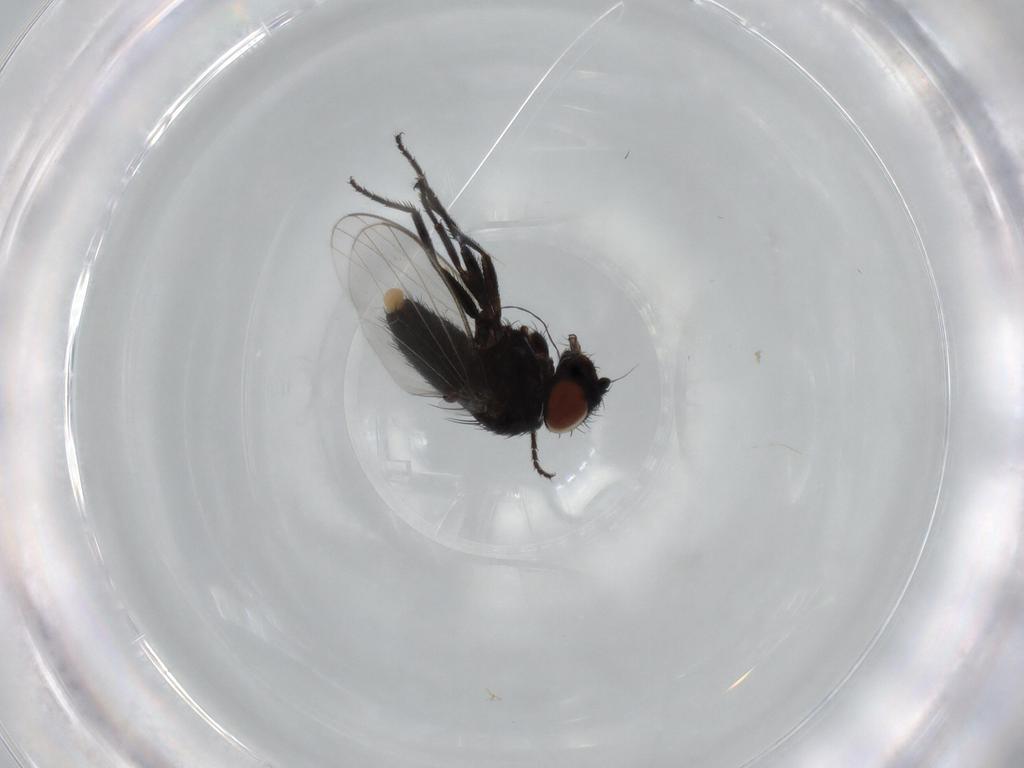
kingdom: Animalia
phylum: Arthropoda
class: Insecta
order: Diptera
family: Milichiidae
